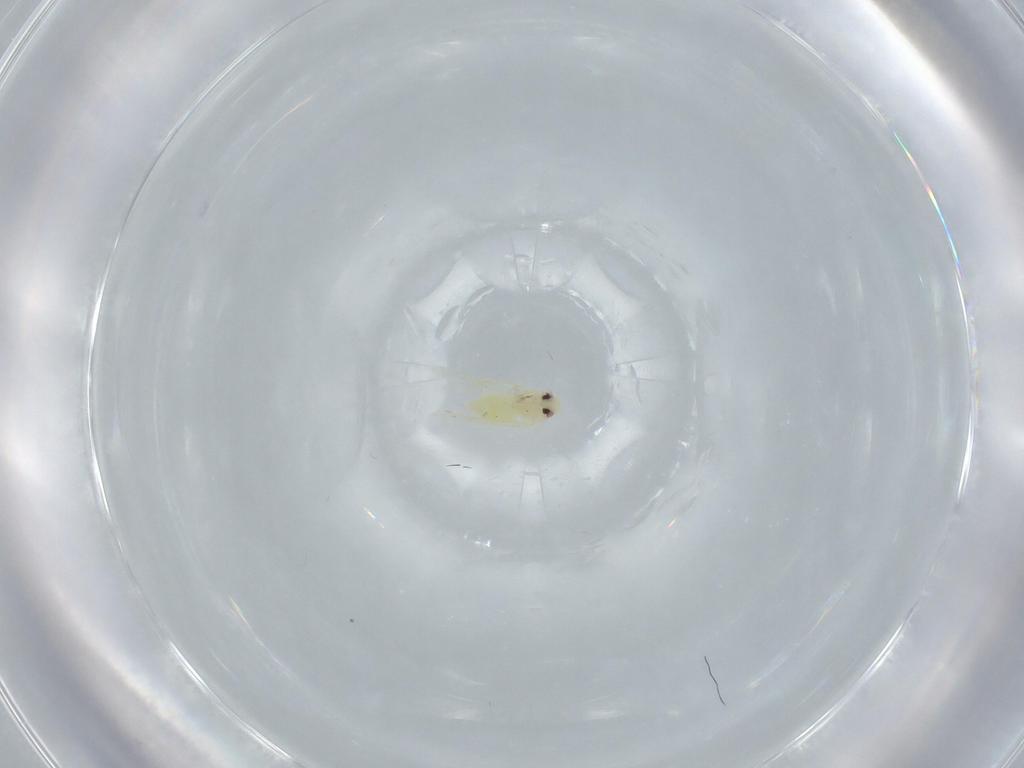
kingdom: Animalia
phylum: Arthropoda
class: Insecta
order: Hemiptera
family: Aleyrodidae
